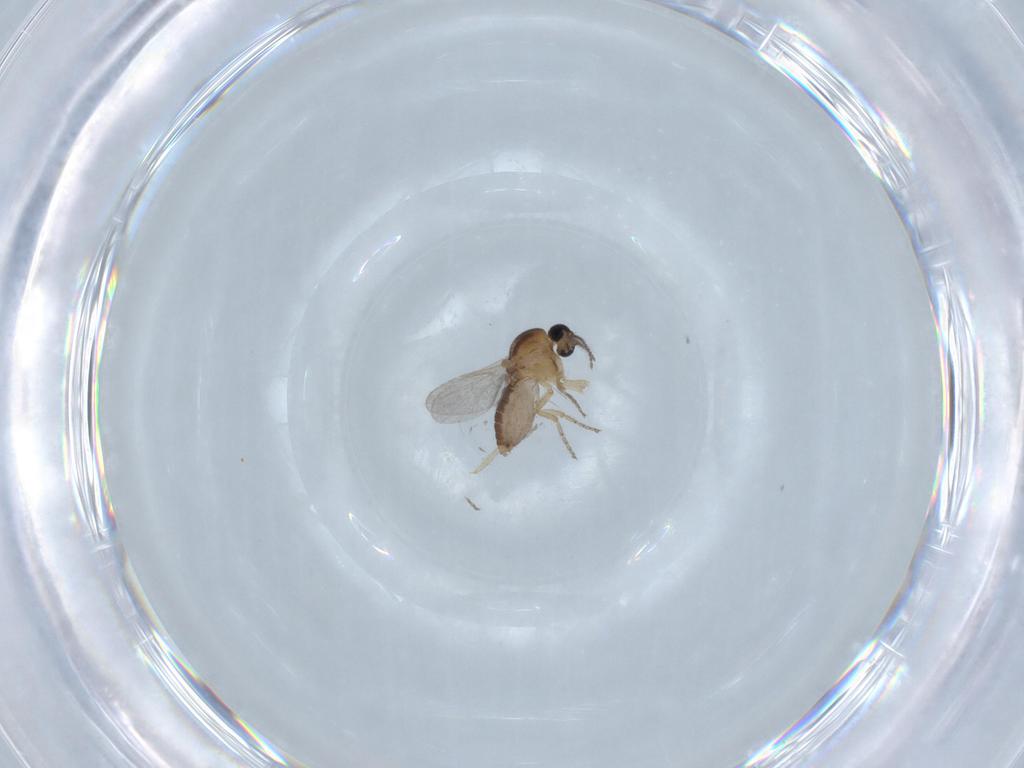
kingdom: Animalia
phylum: Arthropoda
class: Insecta
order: Diptera
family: Ceratopogonidae
